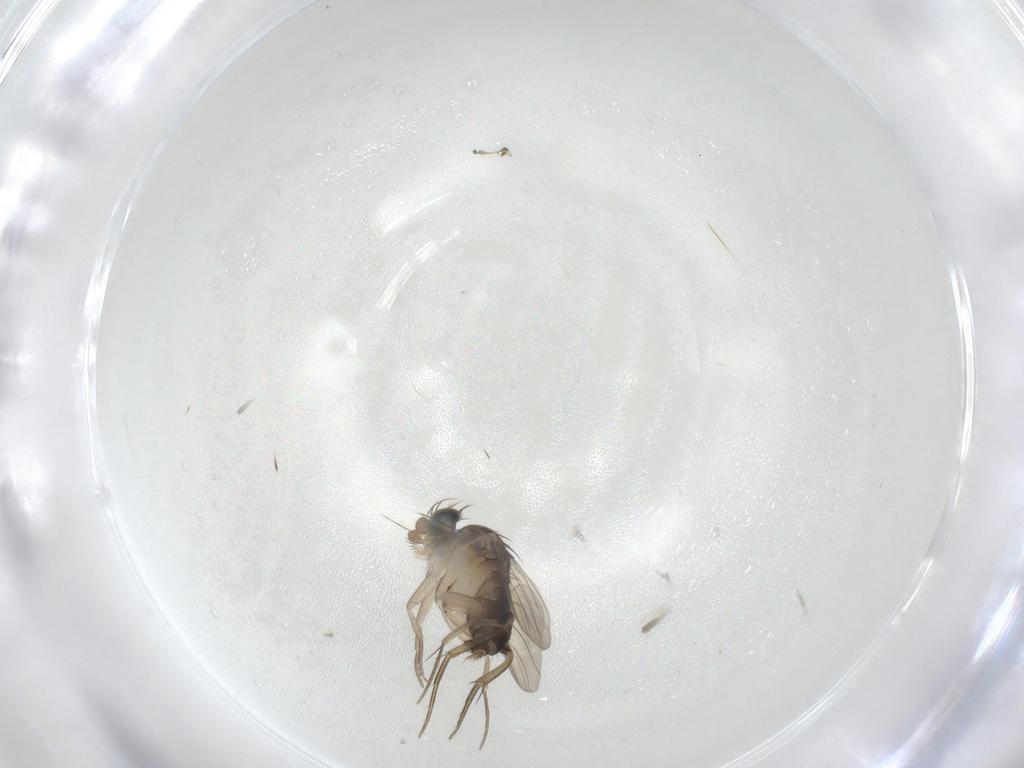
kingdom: Animalia
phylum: Arthropoda
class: Insecta
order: Diptera
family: Phoridae
